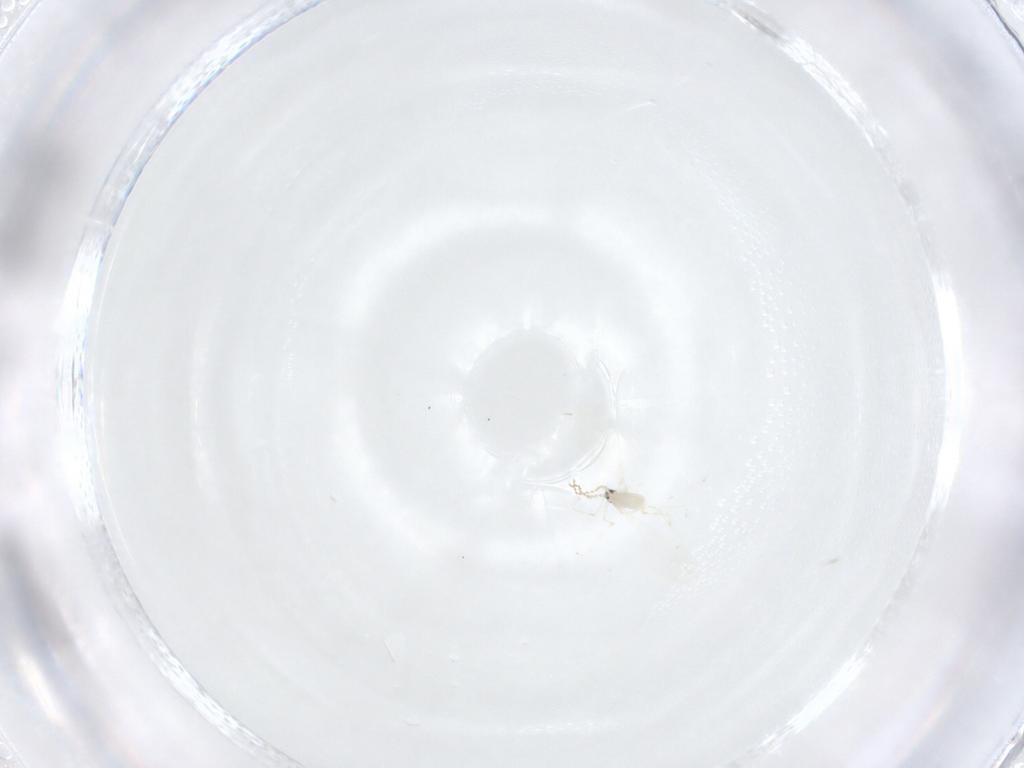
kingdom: Animalia
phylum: Arthropoda
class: Insecta
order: Diptera
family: Cecidomyiidae
